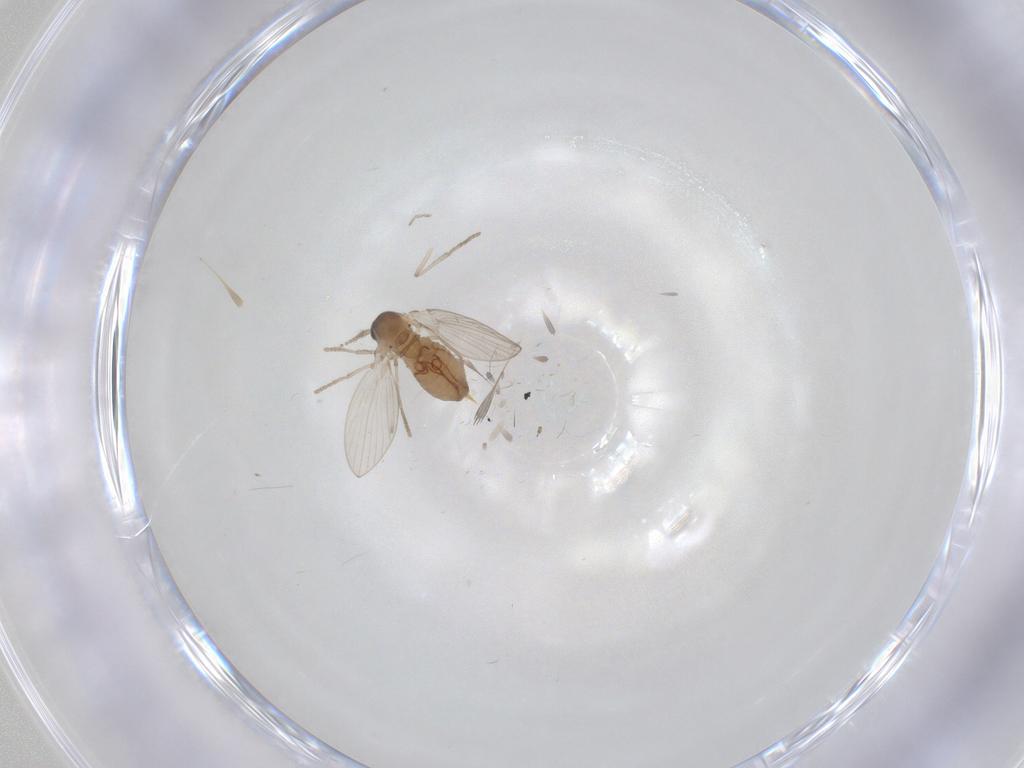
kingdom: Animalia
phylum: Arthropoda
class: Insecta
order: Diptera
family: Psychodidae
